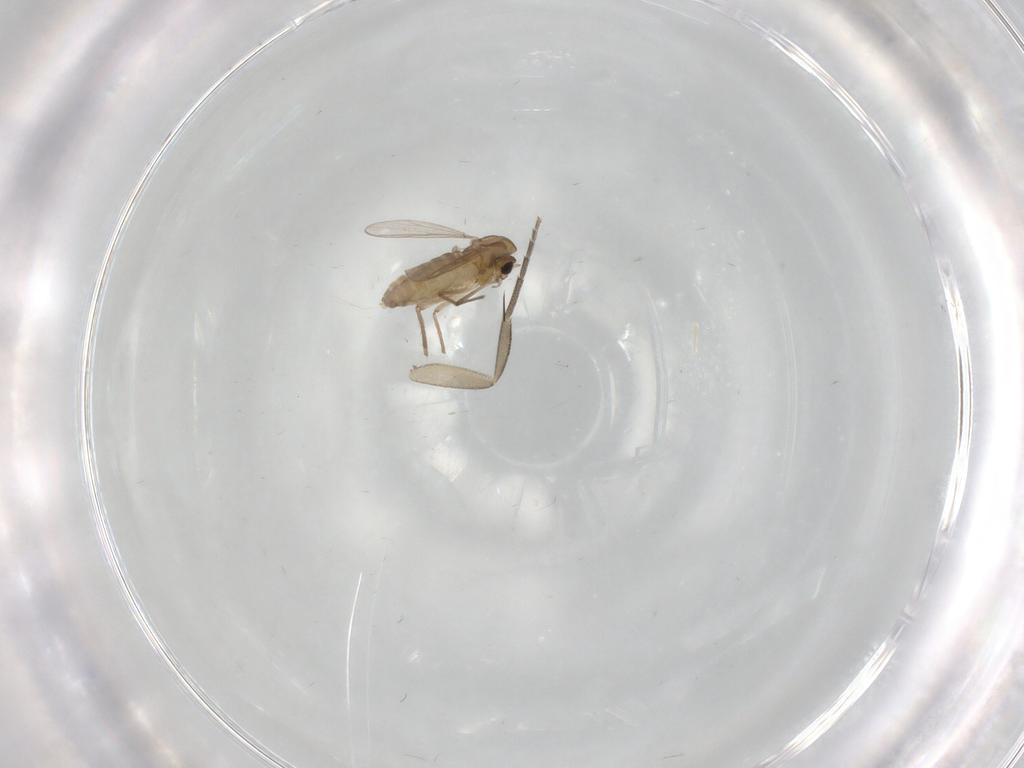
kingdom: Animalia
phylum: Arthropoda
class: Insecta
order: Diptera
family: Chironomidae
